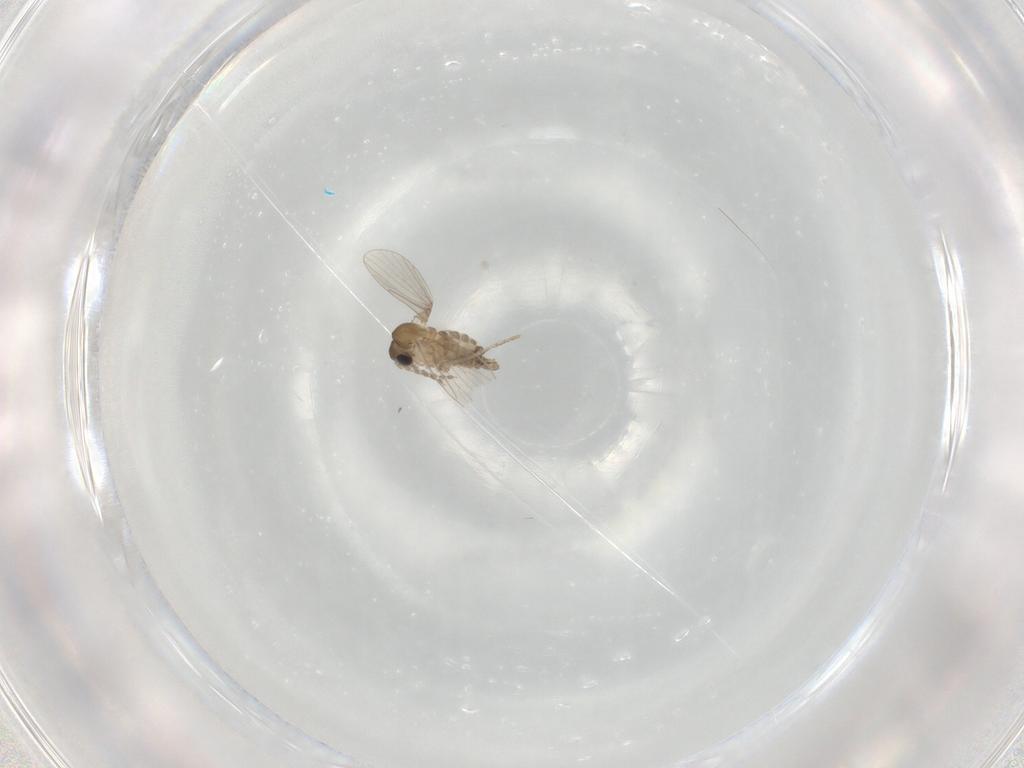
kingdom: Animalia
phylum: Arthropoda
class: Insecta
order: Diptera
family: Psychodidae
